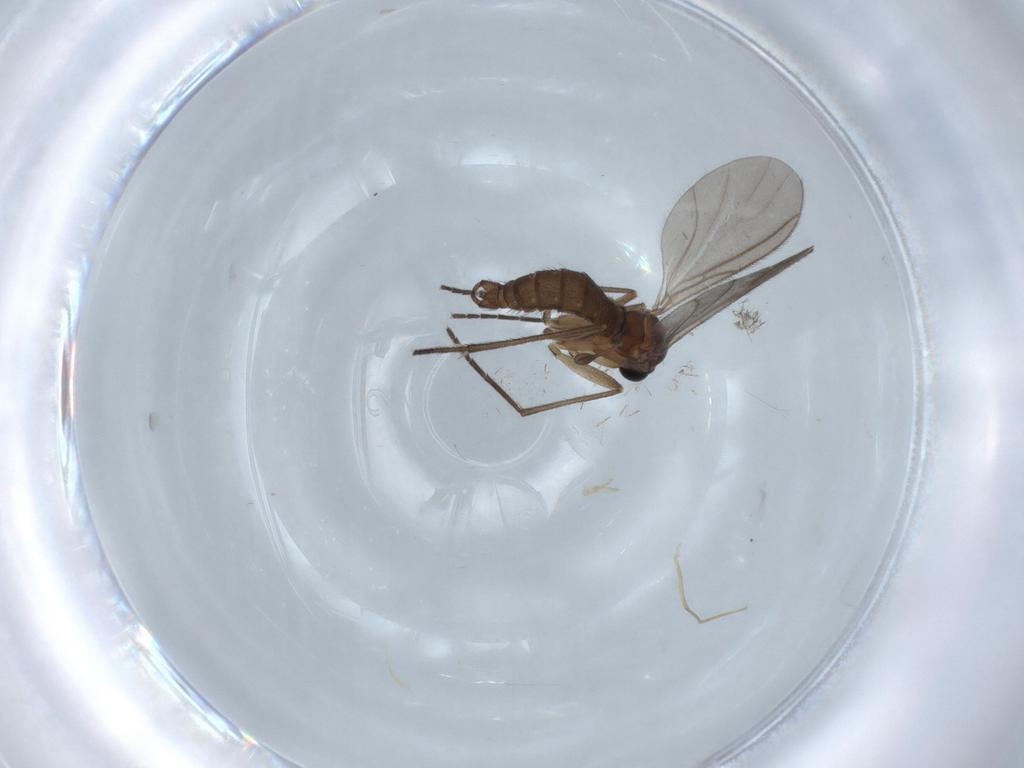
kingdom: Animalia
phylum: Arthropoda
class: Insecta
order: Diptera
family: Sciaridae
